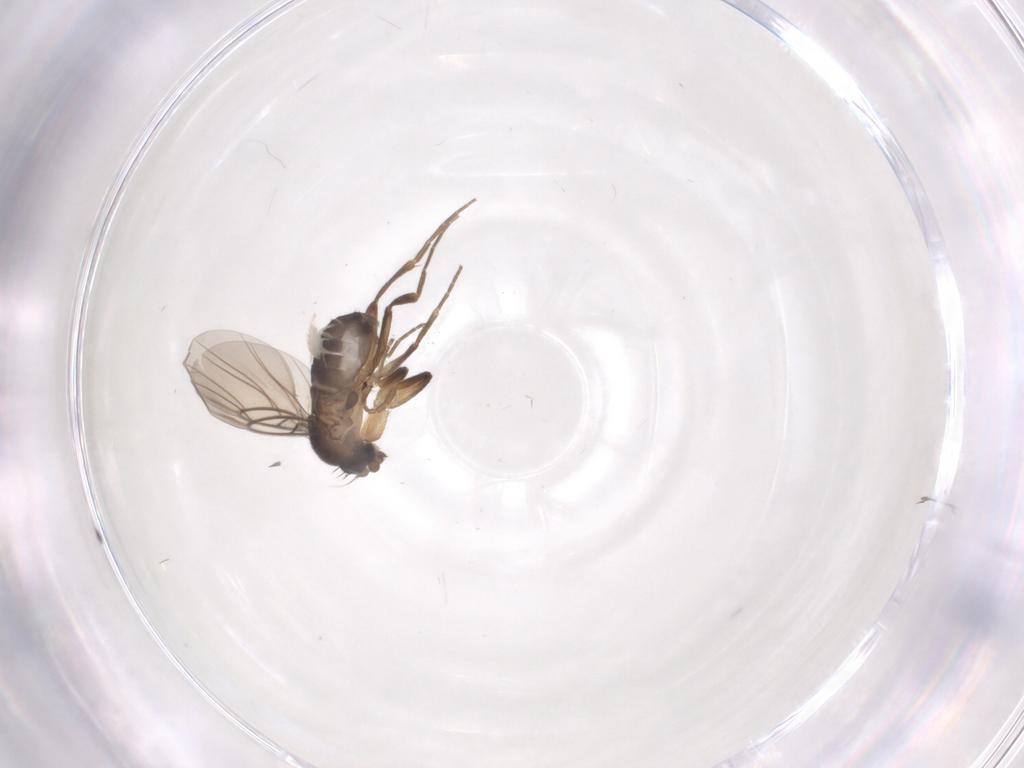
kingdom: Animalia
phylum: Arthropoda
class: Insecta
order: Diptera
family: Phoridae
